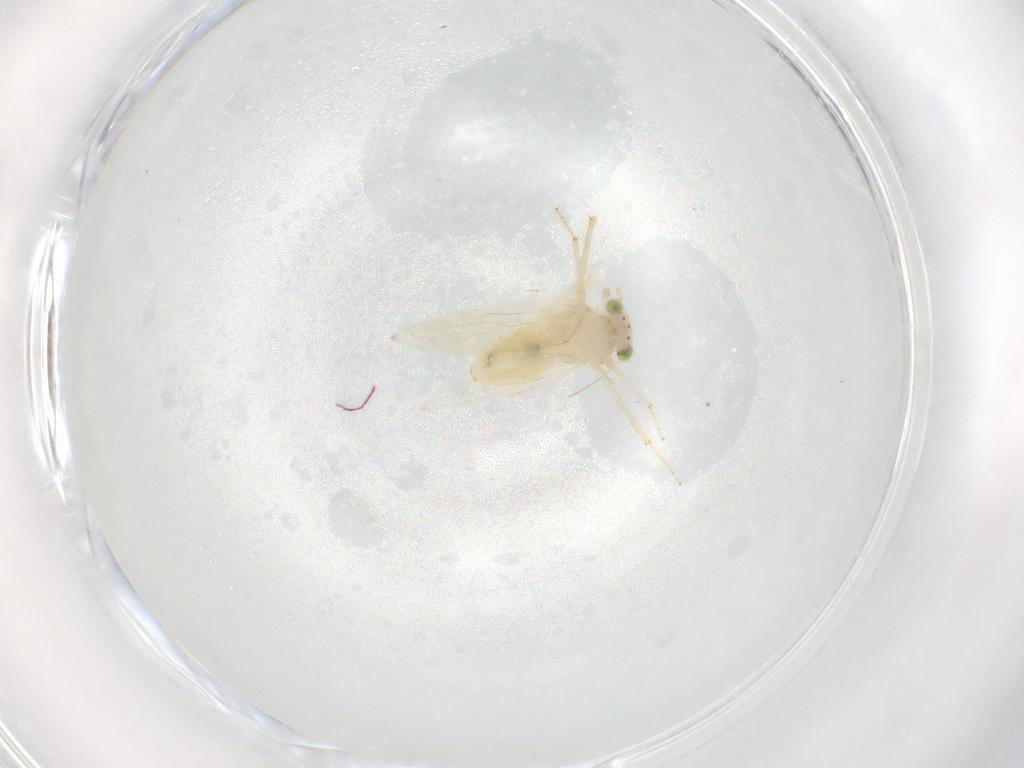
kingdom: Animalia
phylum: Arthropoda
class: Insecta
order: Psocodea
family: Lepidopsocidae
